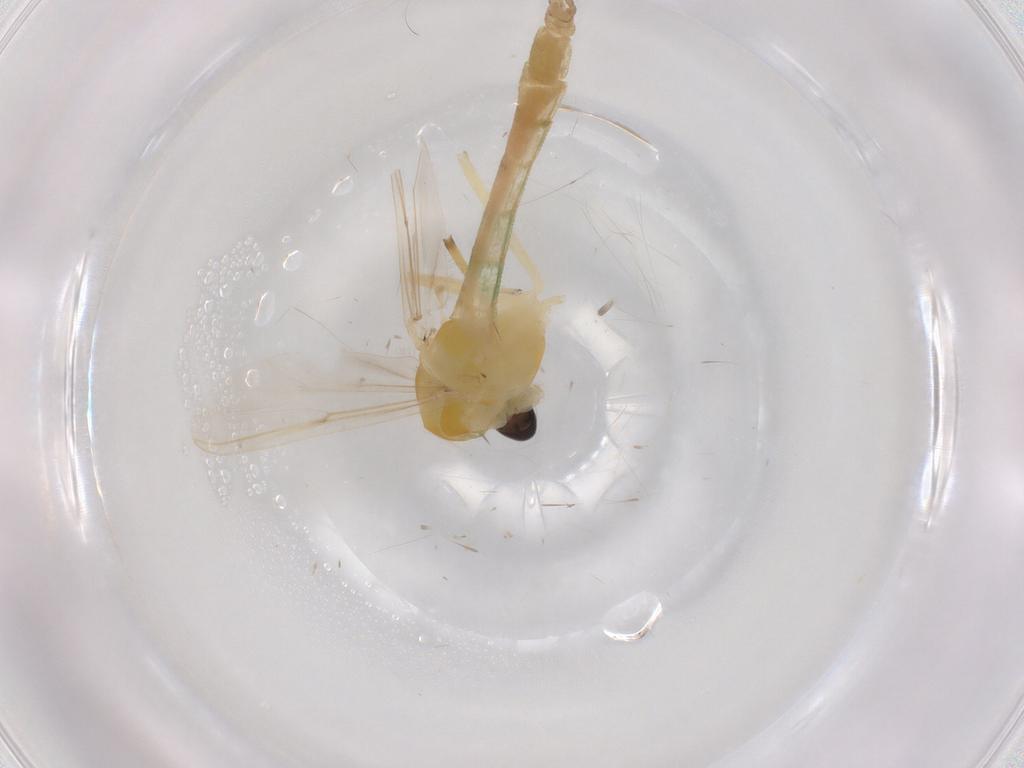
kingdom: Animalia
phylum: Arthropoda
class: Insecta
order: Diptera
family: Chironomidae
